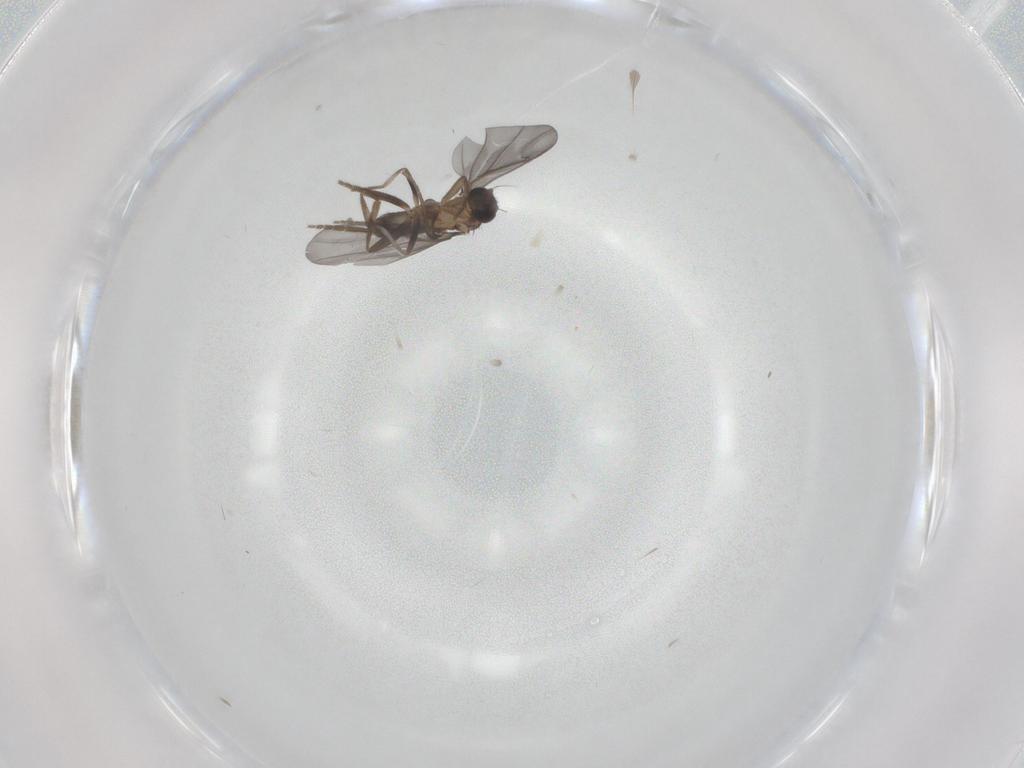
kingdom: Animalia
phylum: Arthropoda
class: Insecta
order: Diptera
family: Phoridae
